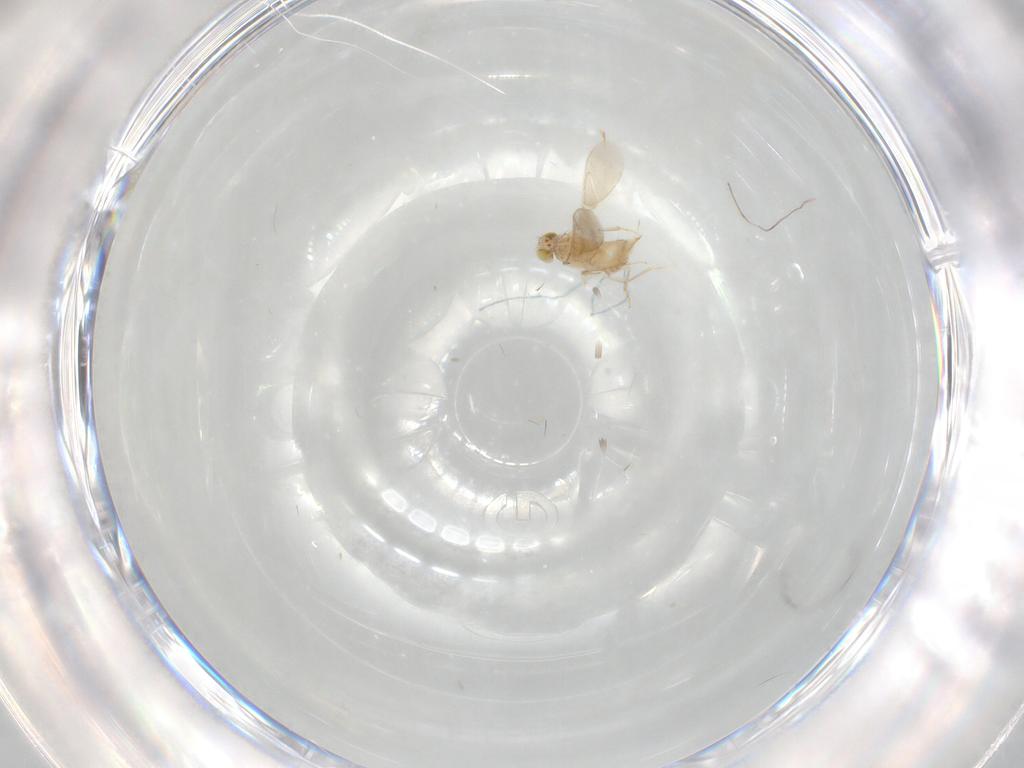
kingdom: Animalia
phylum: Arthropoda
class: Insecta
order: Hymenoptera
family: Aphelinidae
